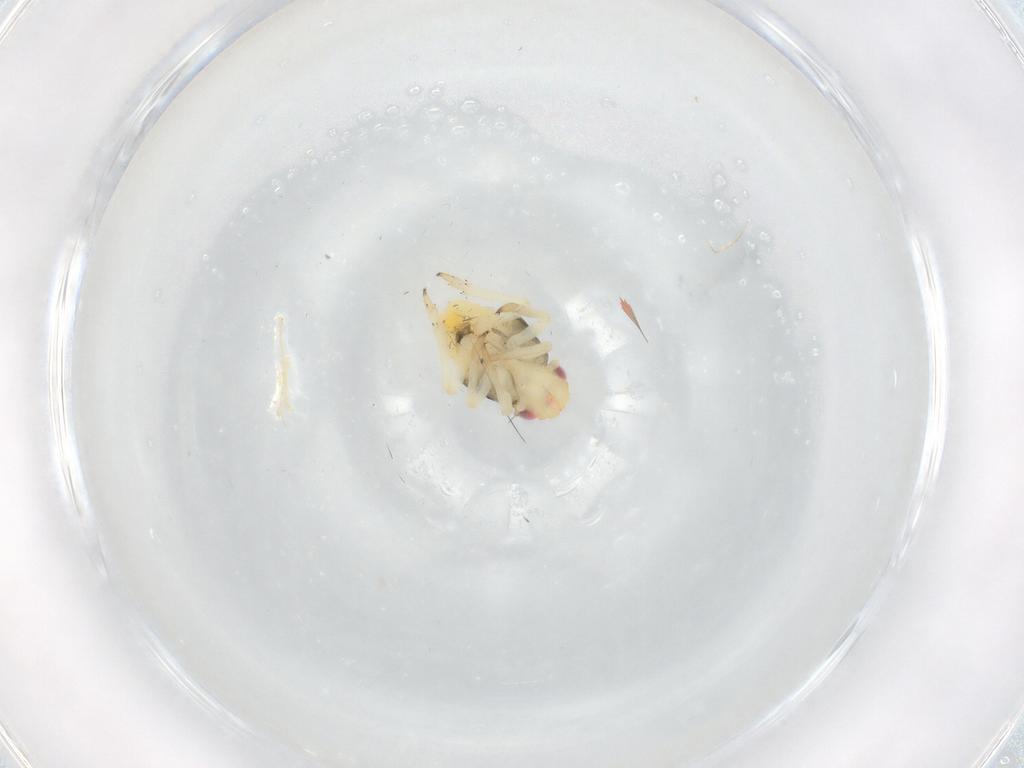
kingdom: Animalia
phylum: Arthropoda
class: Insecta
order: Hemiptera
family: Caliscelidae
